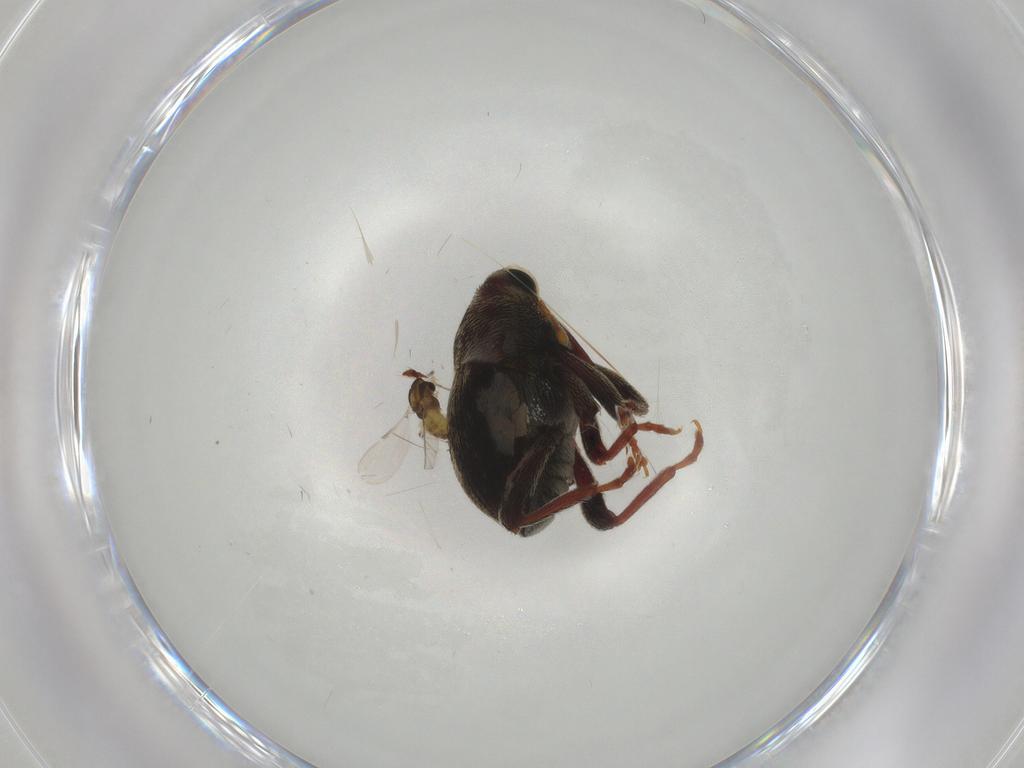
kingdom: Animalia
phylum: Arthropoda
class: Insecta
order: Coleoptera
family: Curculionidae
